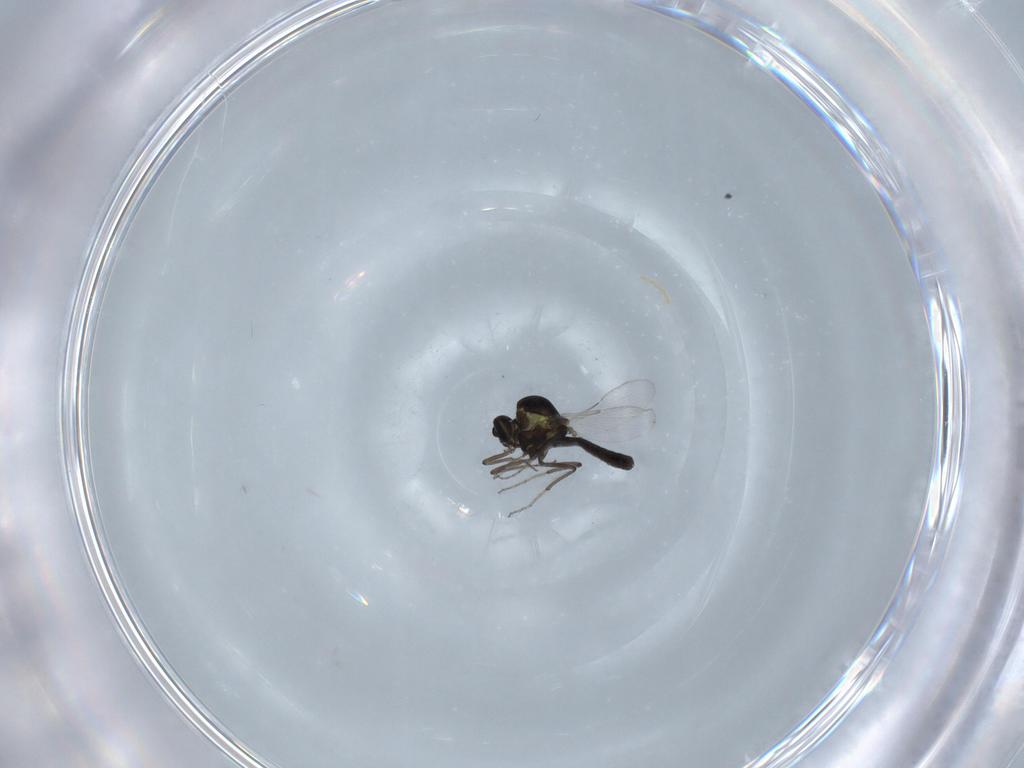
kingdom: Animalia
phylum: Arthropoda
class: Insecta
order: Diptera
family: Ceratopogonidae
